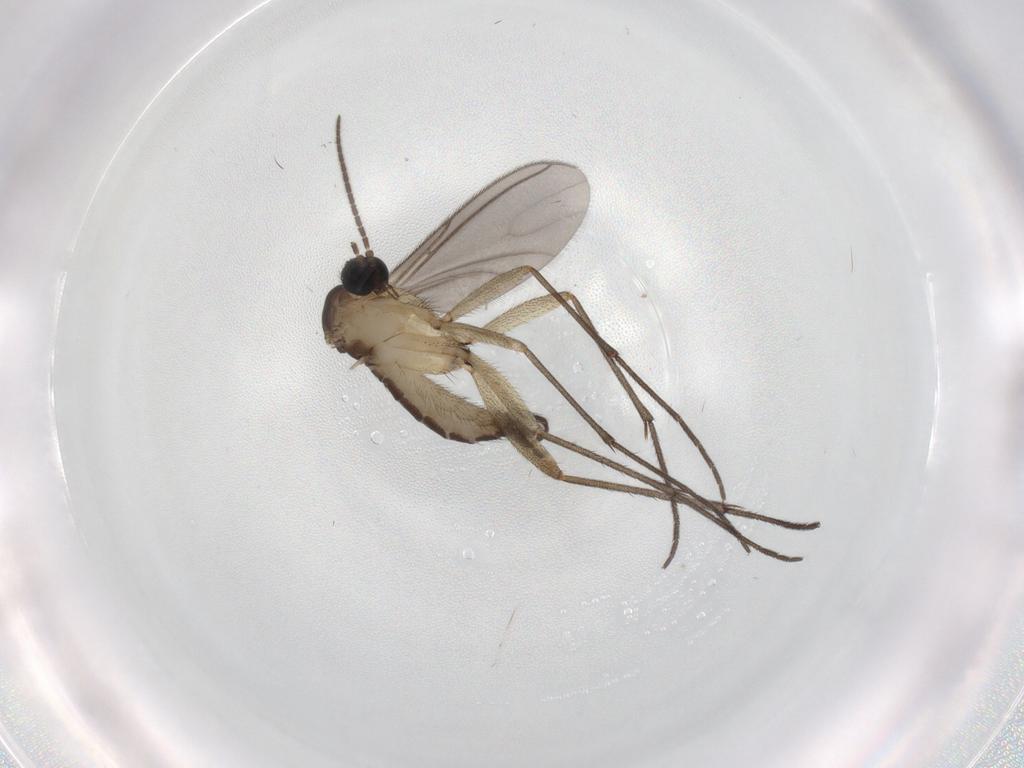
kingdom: Animalia
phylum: Arthropoda
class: Insecta
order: Diptera
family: Sciaridae
